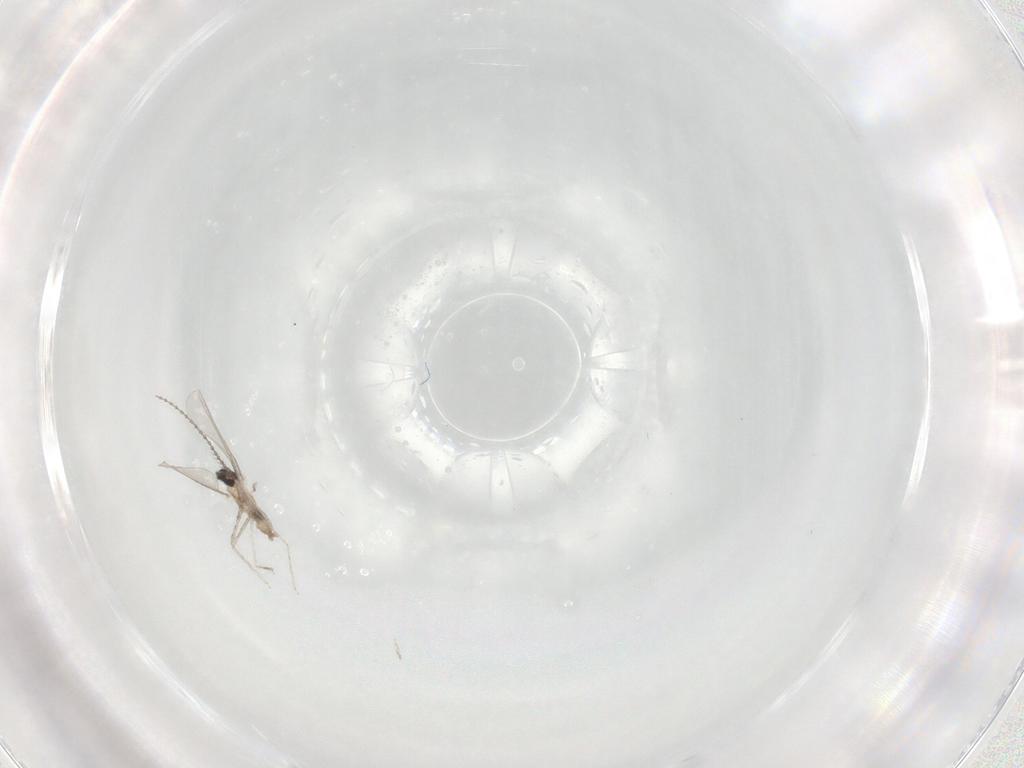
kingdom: Animalia
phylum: Arthropoda
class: Insecta
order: Diptera
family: Cecidomyiidae
